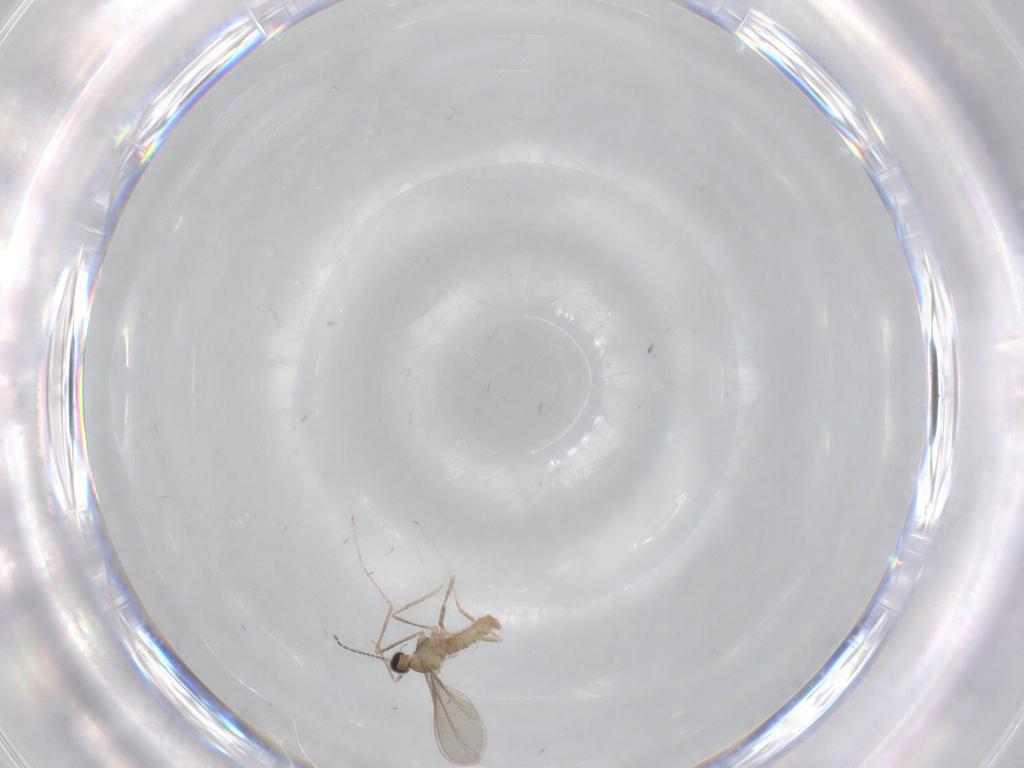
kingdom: Animalia
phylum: Arthropoda
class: Insecta
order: Diptera
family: Cecidomyiidae
